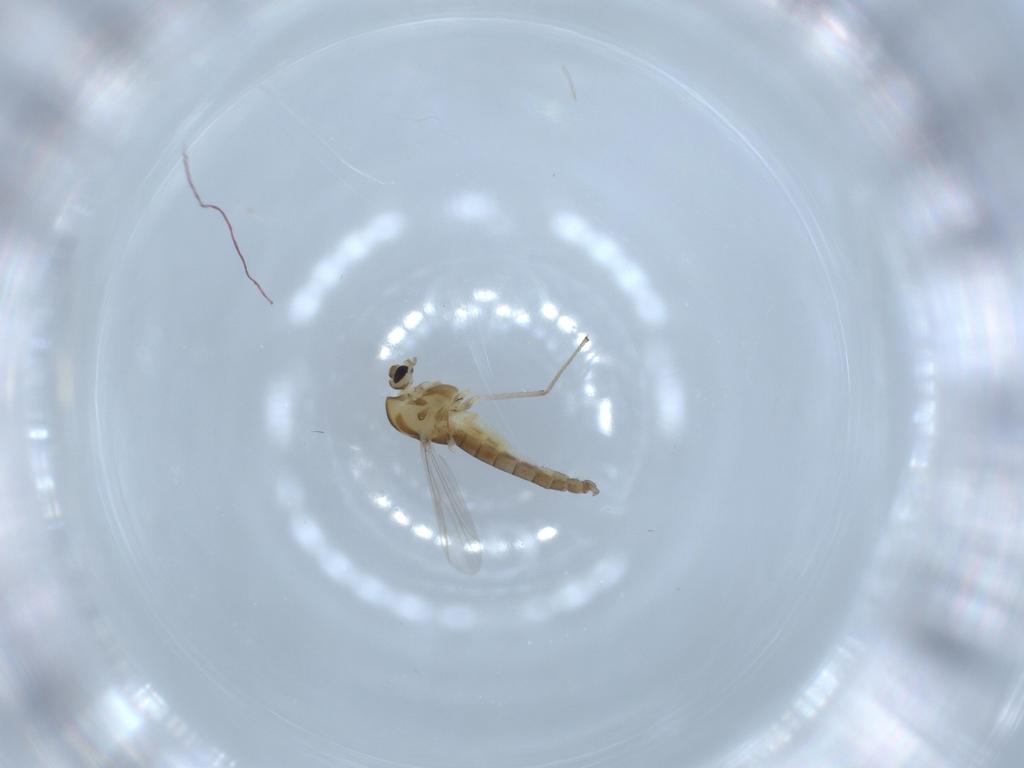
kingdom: Animalia
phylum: Arthropoda
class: Insecta
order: Diptera
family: Chironomidae
